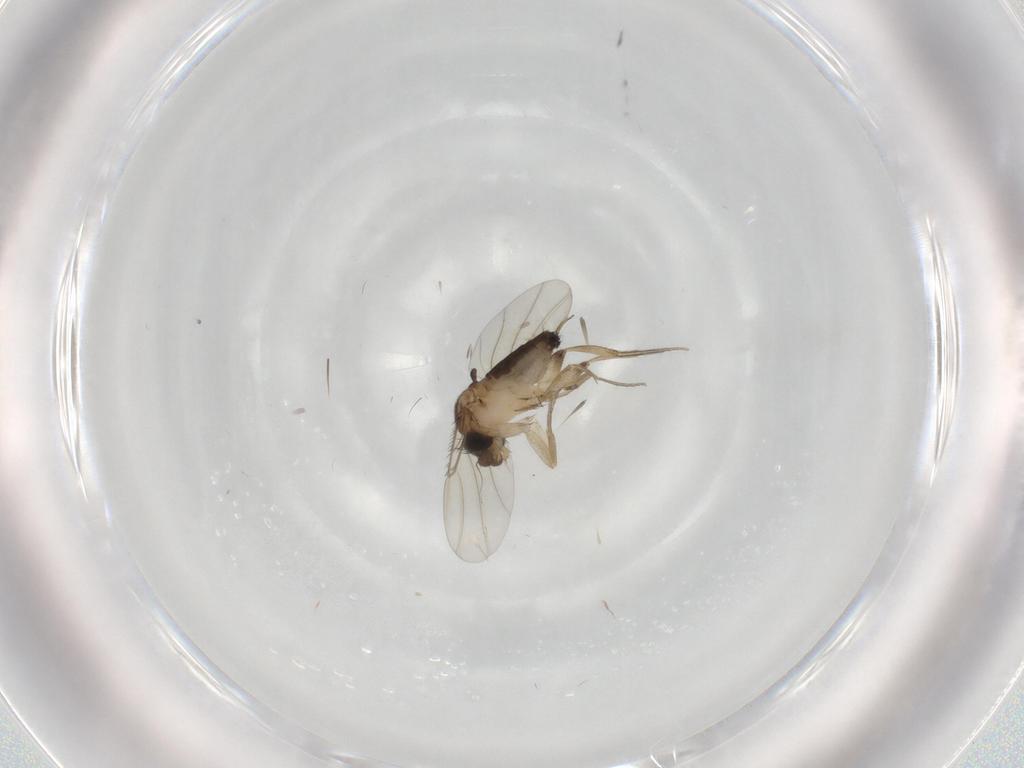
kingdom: Animalia
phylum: Arthropoda
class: Insecta
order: Diptera
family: Phoridae
